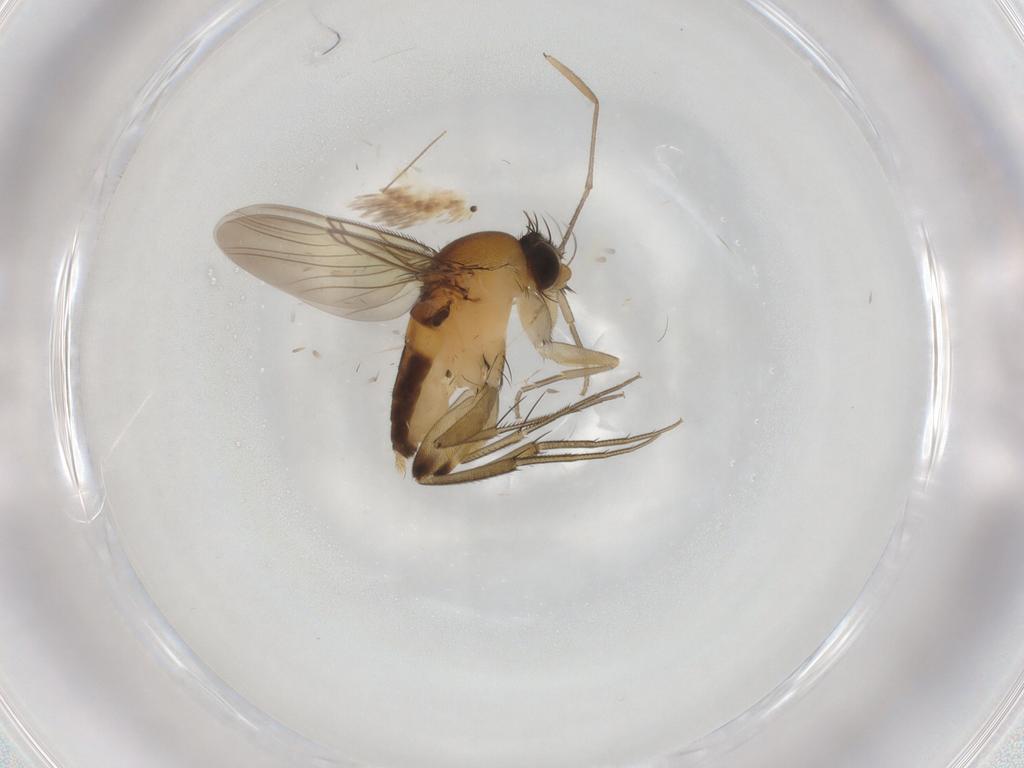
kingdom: Animalia
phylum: Arthropoda
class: Insecta
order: Diptera
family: Phoridae
